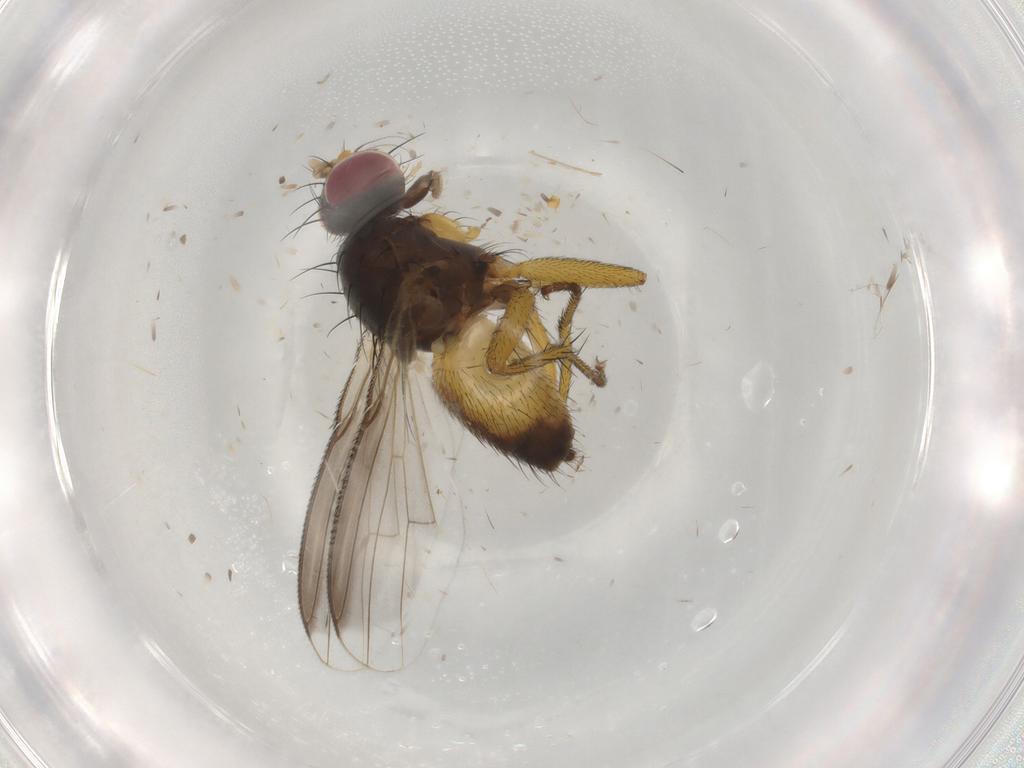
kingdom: Animalia
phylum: Arthropoda
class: Insecta
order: Diptera
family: Muscidae
